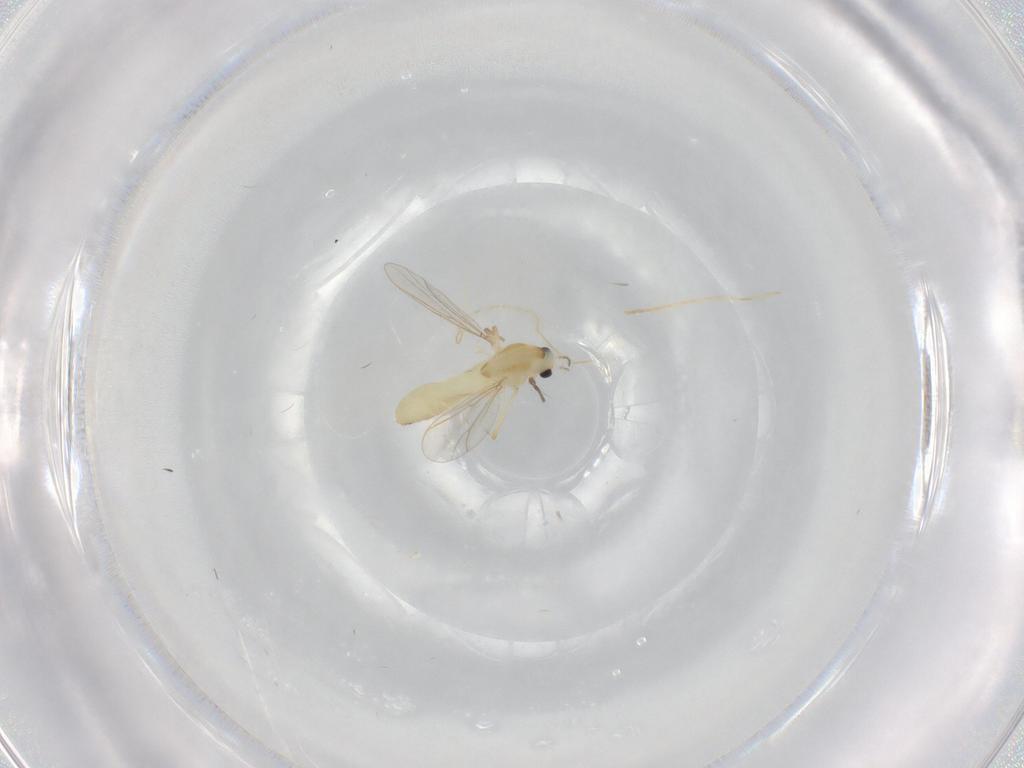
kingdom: Animalia
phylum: Arthropoda
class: Insecta
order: Diptera
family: Chironomidae
